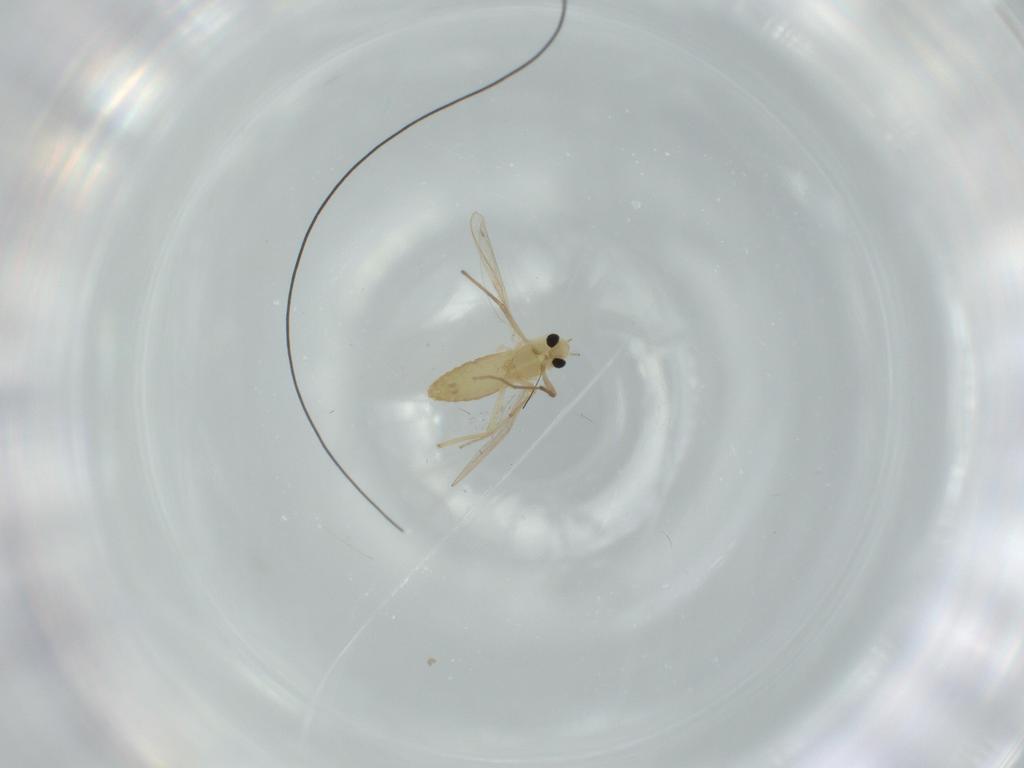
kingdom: Animalia
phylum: Arthropoda
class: Insecta
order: Diptera
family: Chironomidae
